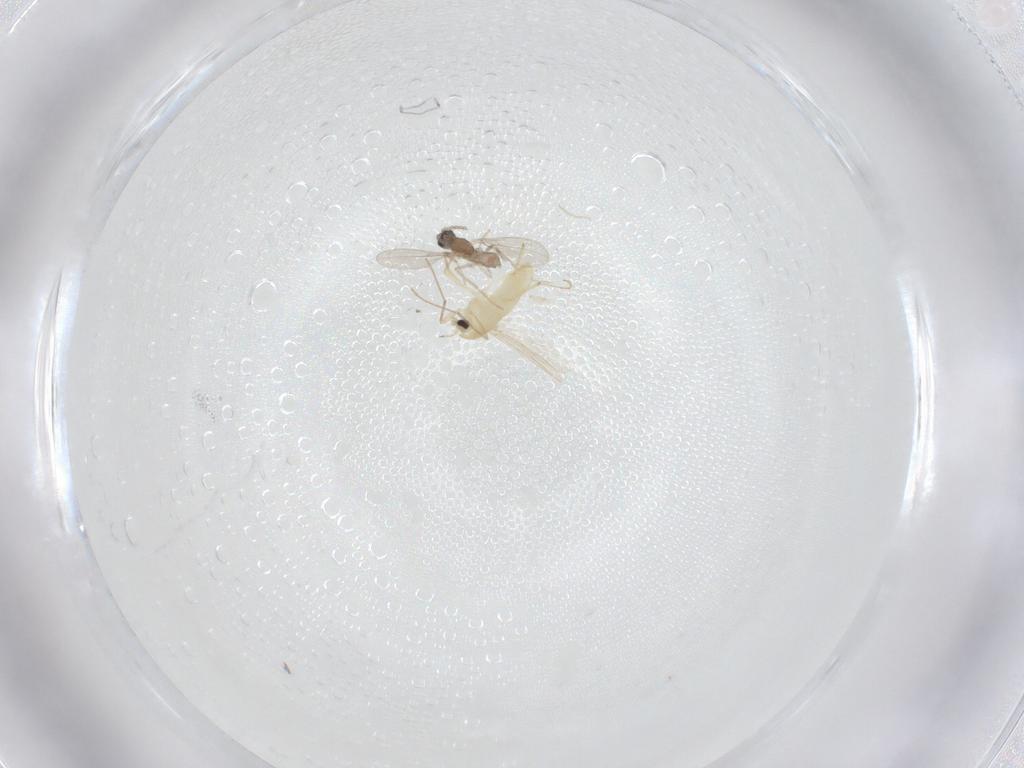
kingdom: Animalia
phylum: Arthropoda
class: Insecta
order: Diptera
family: Chironomidae
